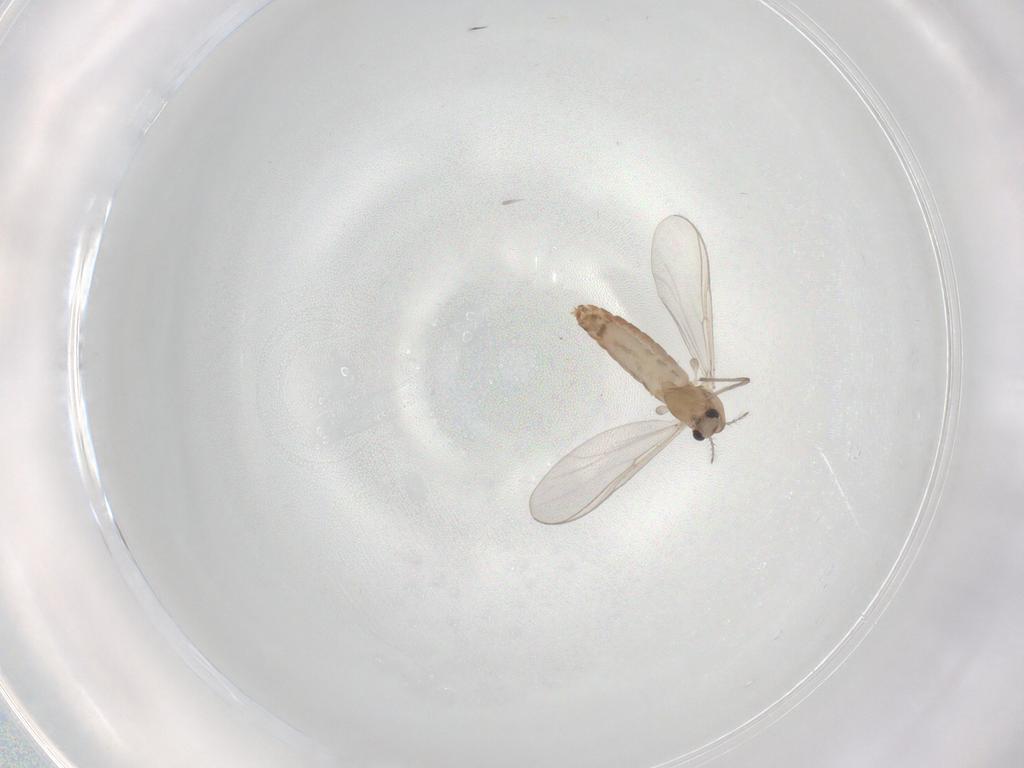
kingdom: Animalia
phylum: Arthropoda
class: Insecta
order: Diptera
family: Chironomidae
